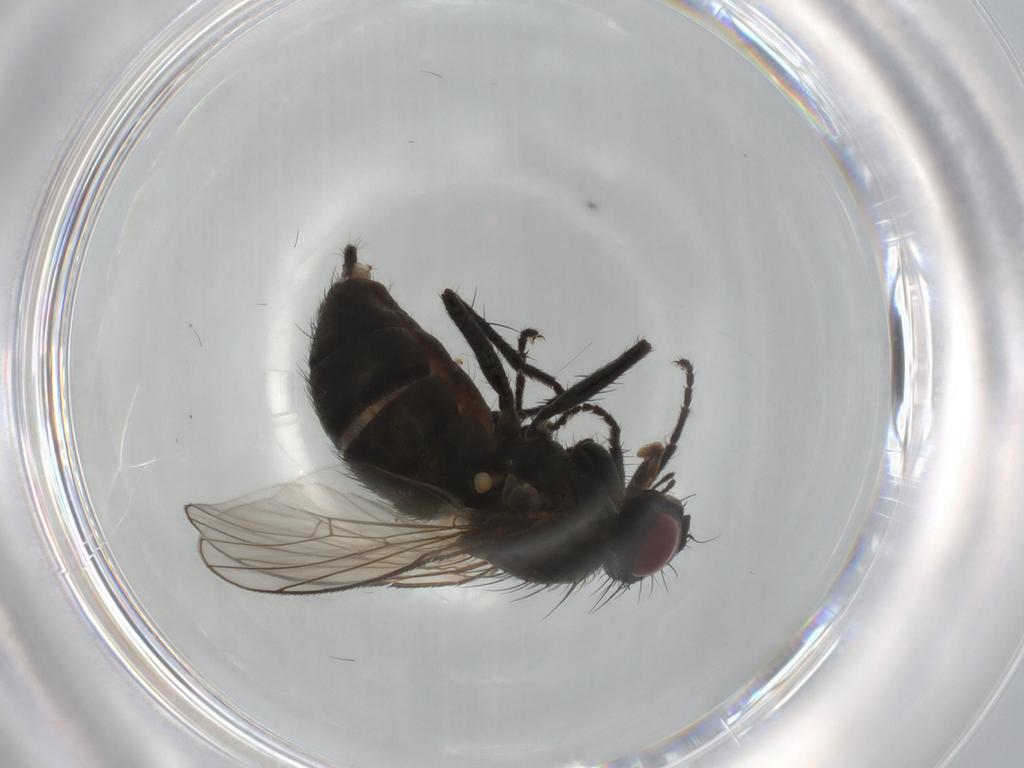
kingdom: Animalia
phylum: Arthropoda
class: Insecta
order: Diptera
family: Muscidae
